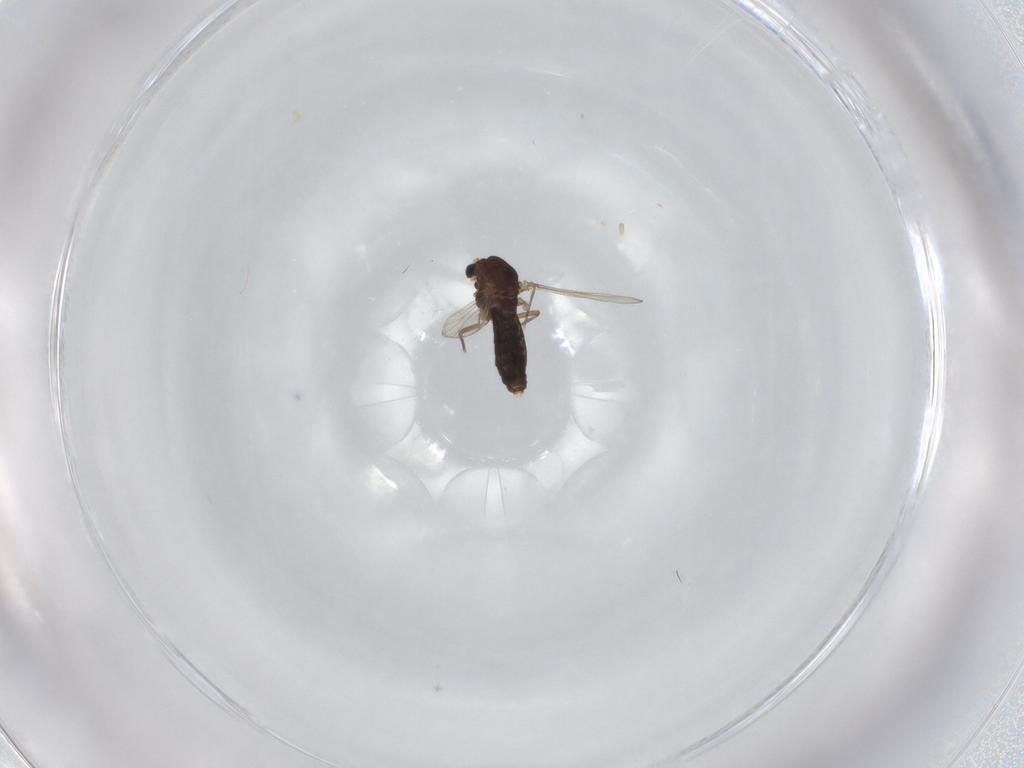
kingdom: Animalia
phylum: Arthropoda
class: Insecta
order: Diptera
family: Chironomidae
